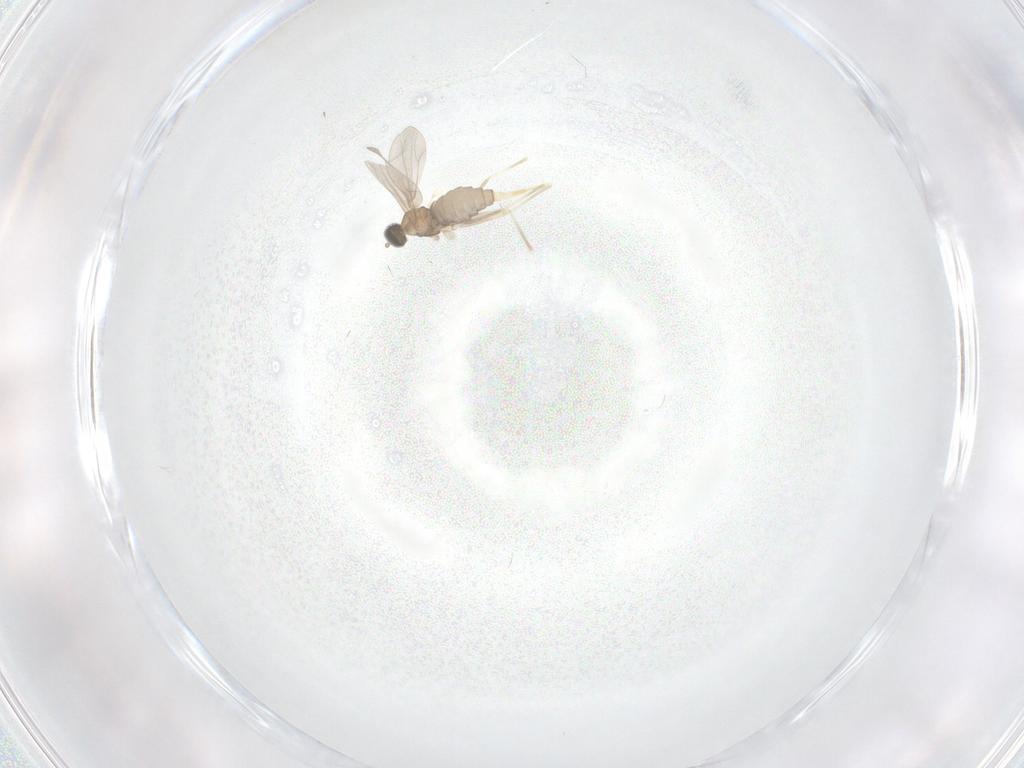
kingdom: Animalia
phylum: Arthropoda
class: Insecta
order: Diptera
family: Cecidomyiidae
